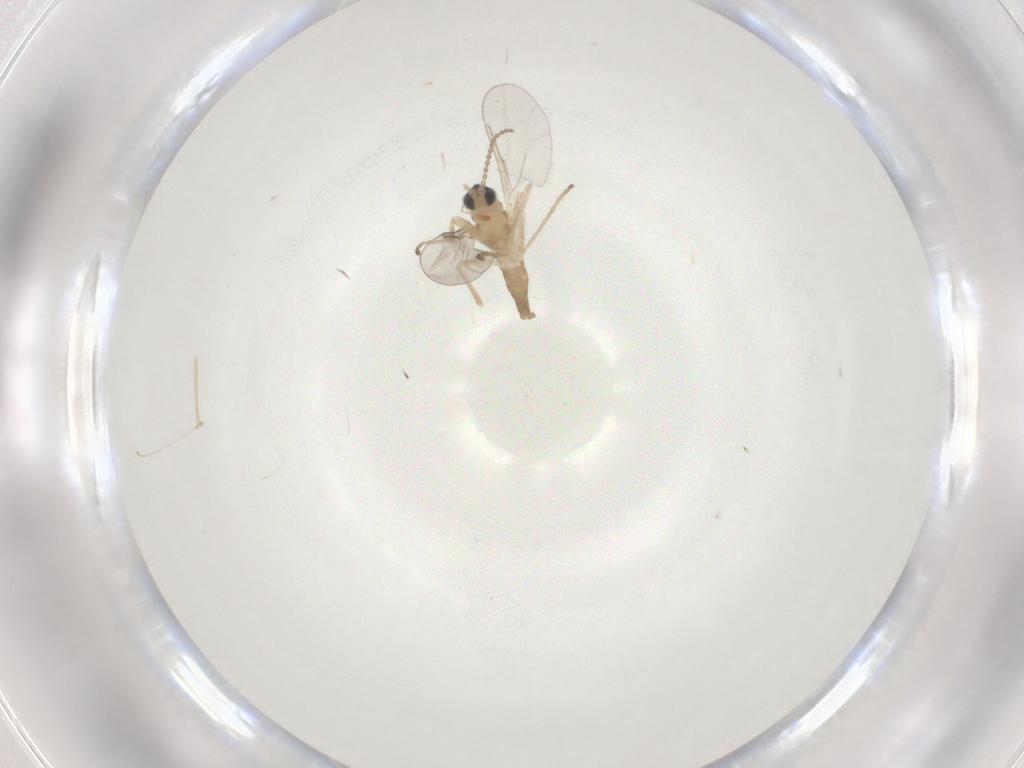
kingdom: Animalia
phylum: Arthropoda
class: Insecta
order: Diptera
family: Cecidomyiidae
